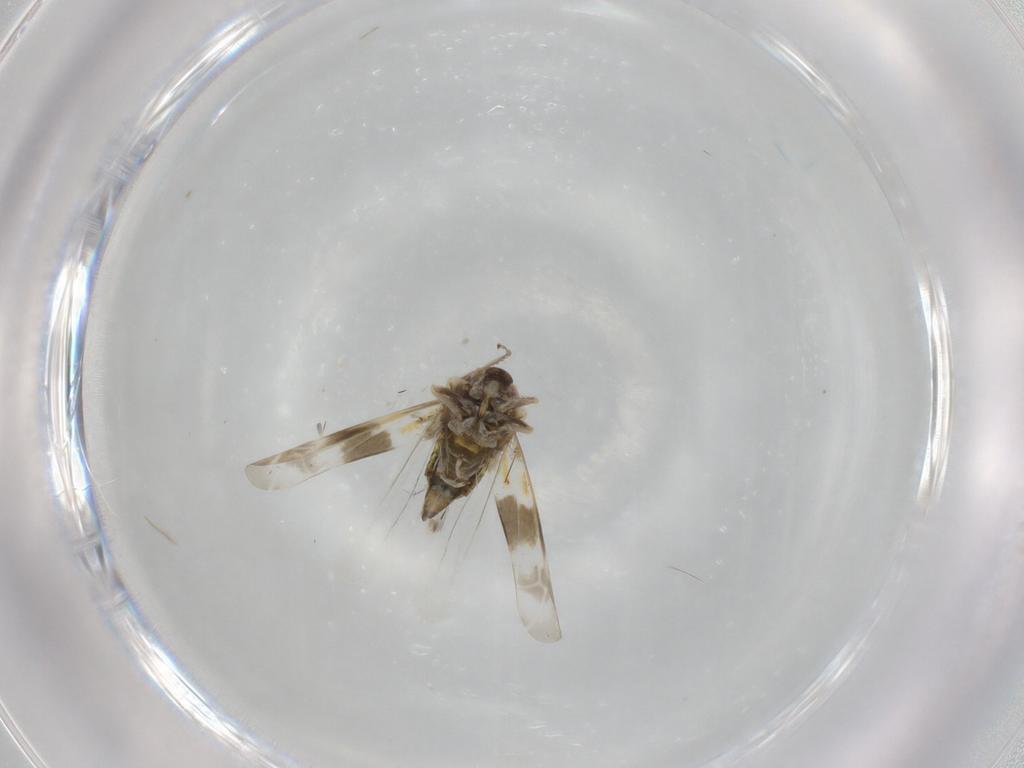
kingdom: Animalia
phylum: Arthropoda
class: Insecta
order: Hemiptera
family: Cicadellidae
